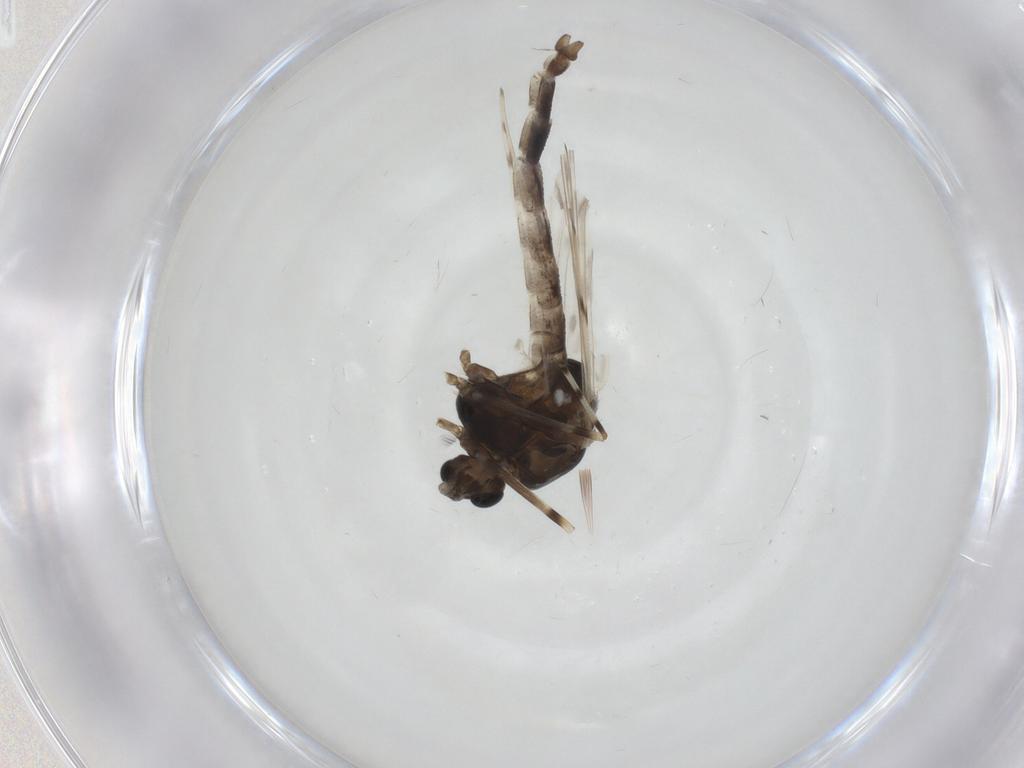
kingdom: Animalia
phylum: Arthropoda
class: Insecta
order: Diptera
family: Chironomidae
